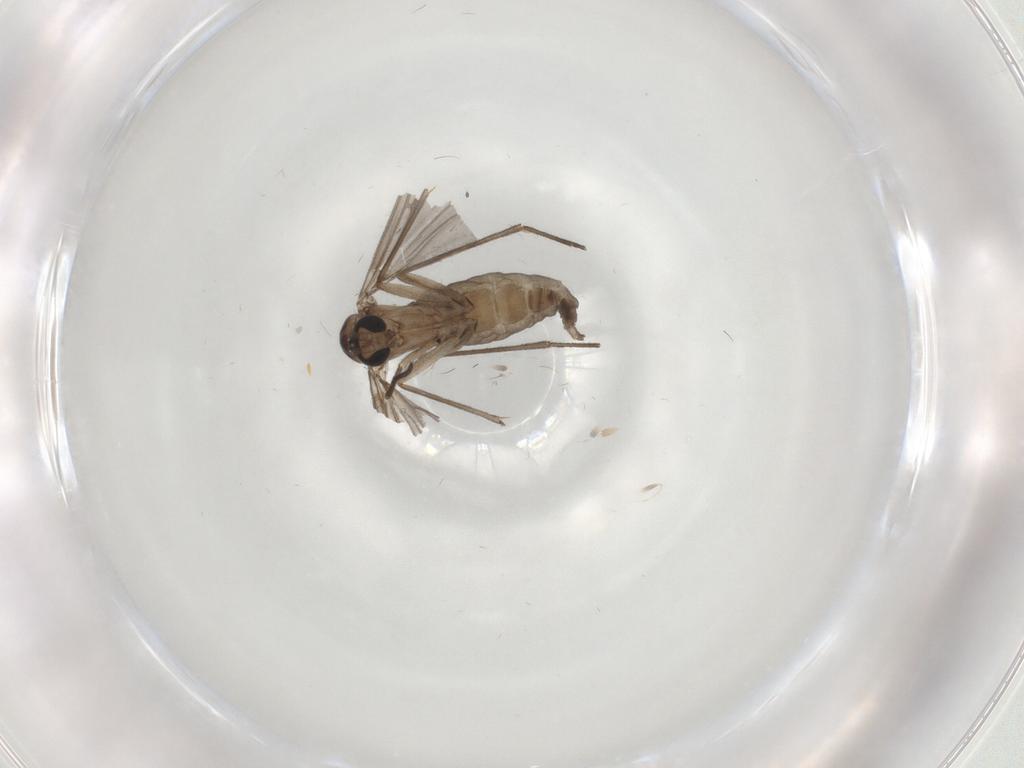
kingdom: Animalia
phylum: Arthropoda
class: Insecta
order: Diptera
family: Sciaridae
